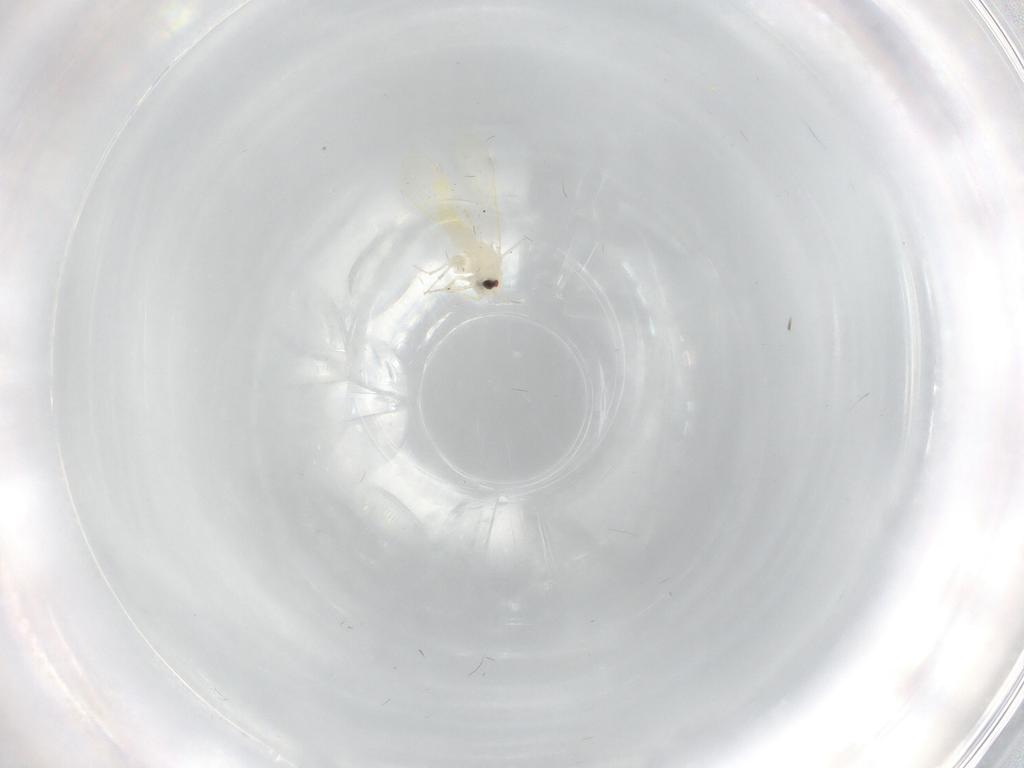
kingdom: Animalia
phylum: Arthropoda
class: Insecta
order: Hemiptera
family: Aleyrodidae
